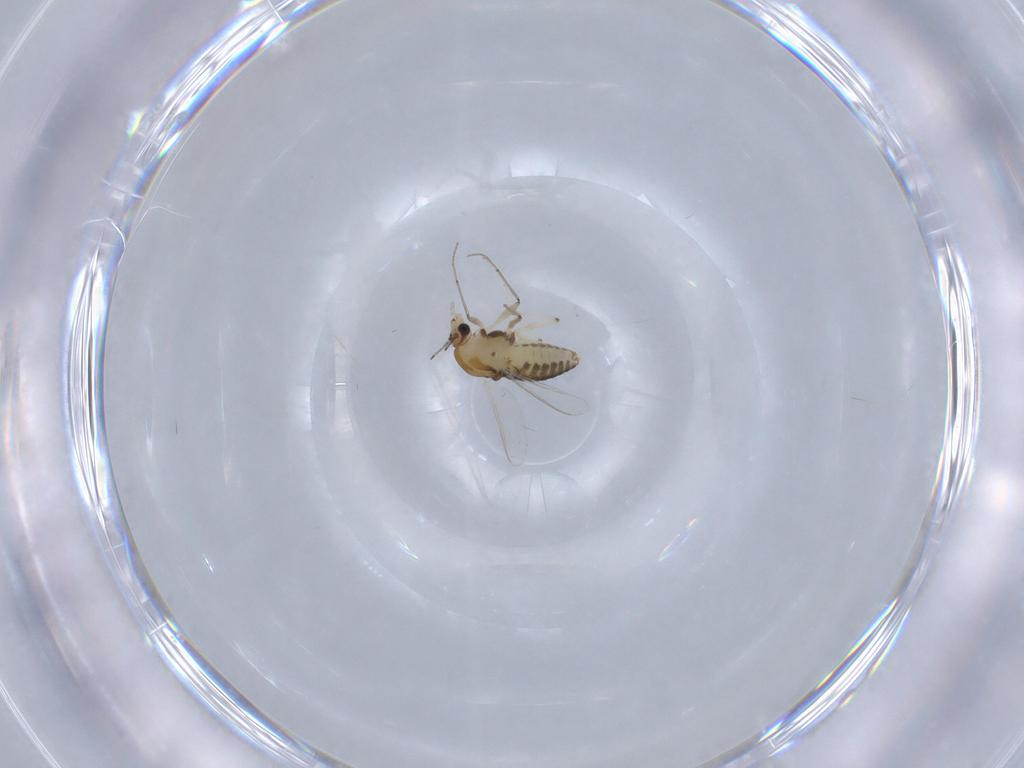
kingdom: Animalia
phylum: Arthropoda
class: Insecta
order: Diptera
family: Chironomidae
